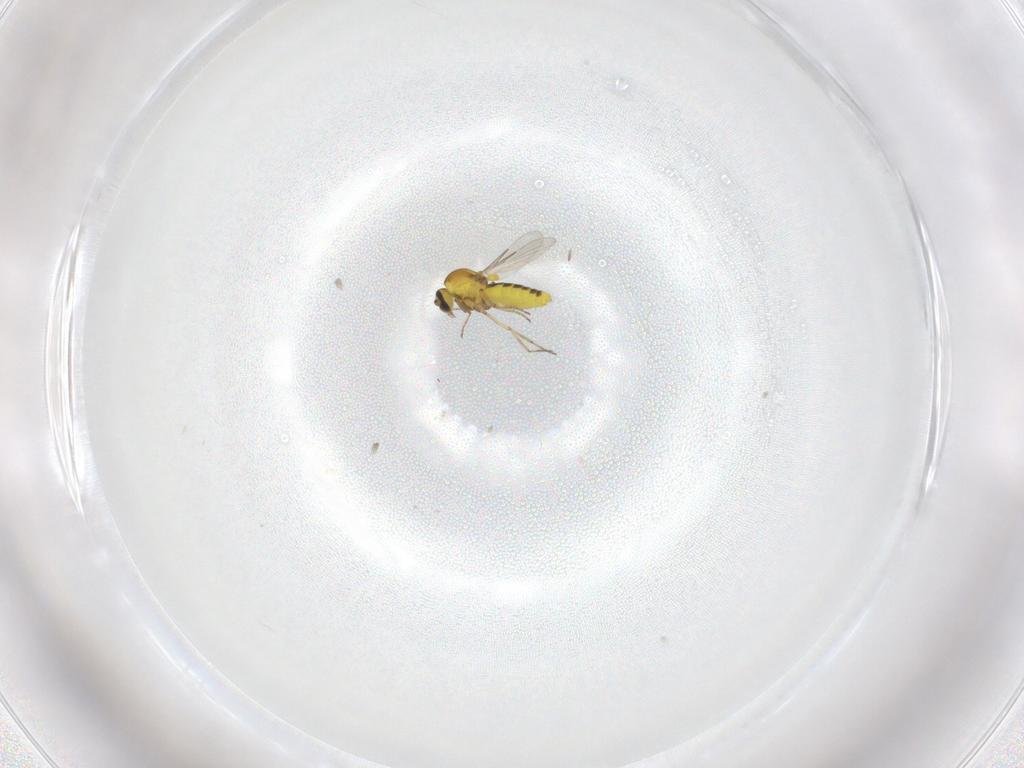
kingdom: Animalia
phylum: Arthropoda
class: Insecta
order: Diptera
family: Ceratopogonidae
